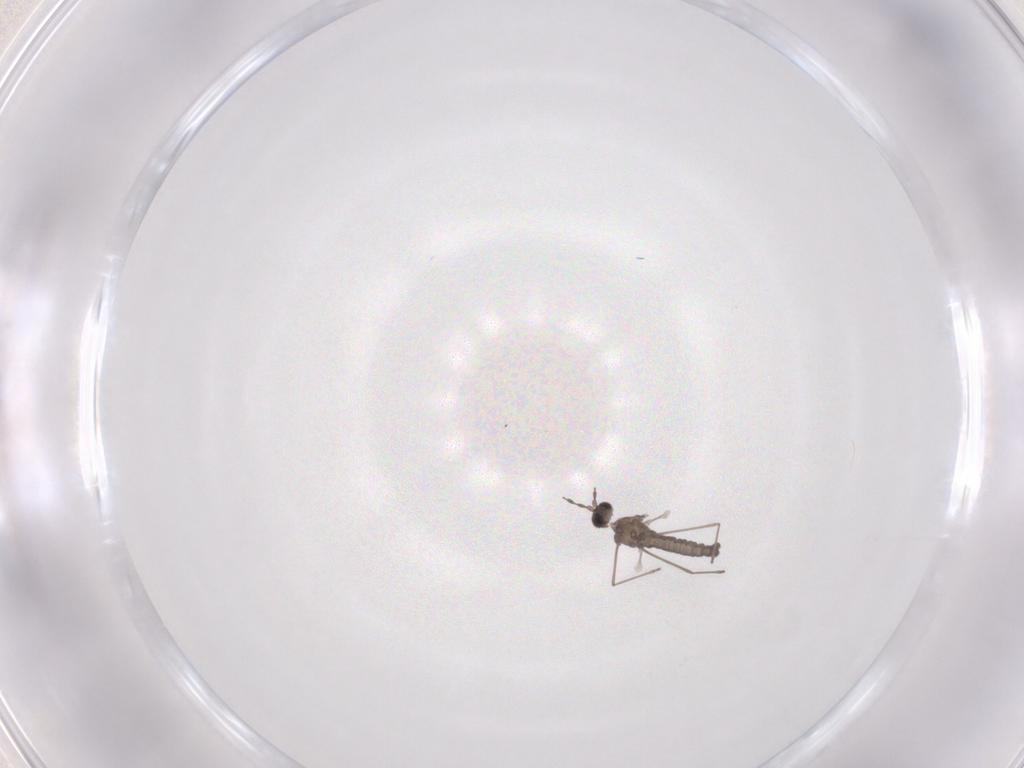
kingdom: Animalia
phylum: Arthropoda
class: Insecta
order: Diptera
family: Cecidomyiidae
